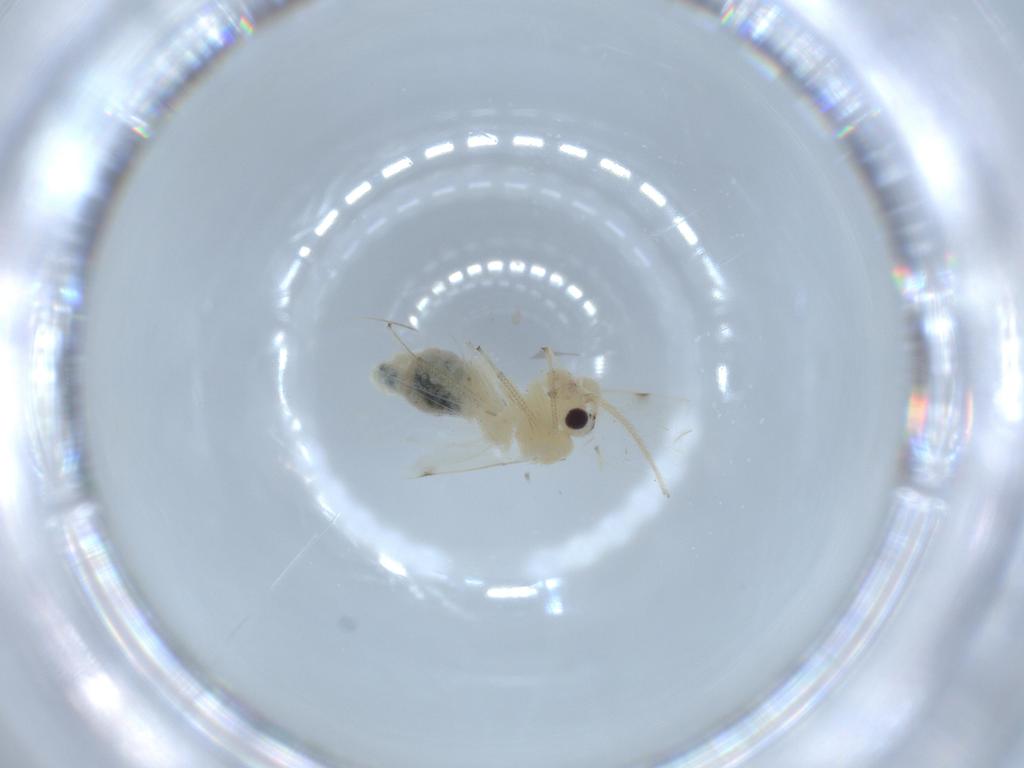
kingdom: Animalia
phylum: Arthropoda
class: Insecta
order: Psocodea
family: Caeciliusidae
